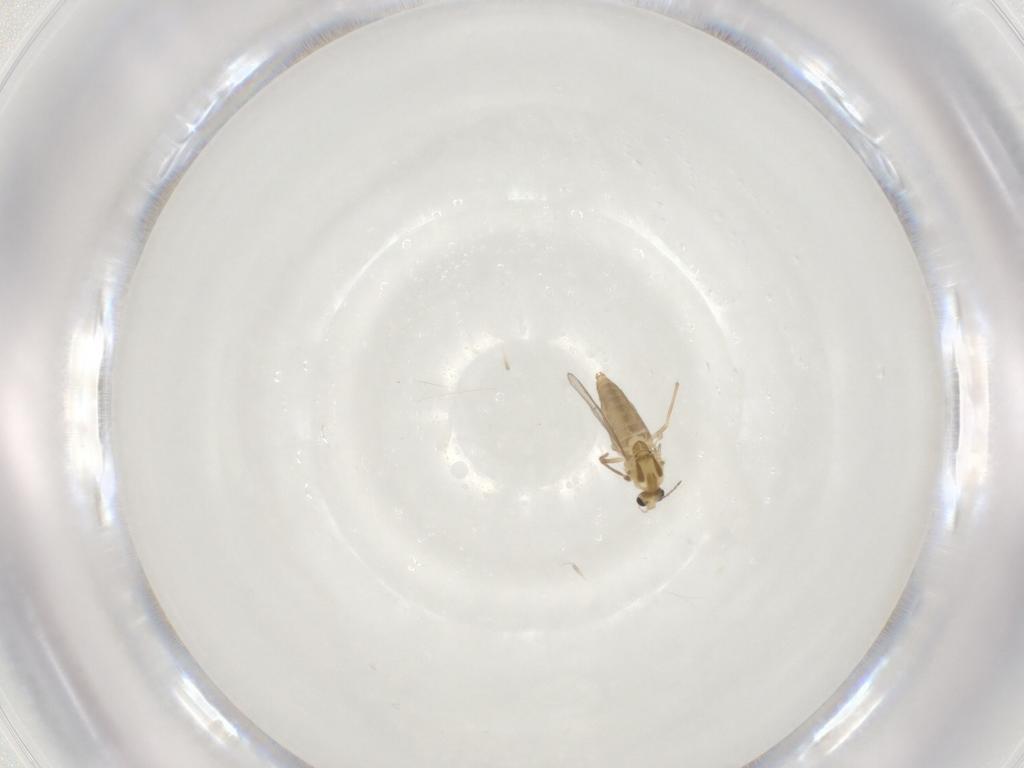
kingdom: Animalia
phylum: Arthropoda
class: Insecta
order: Diptera
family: Chironomidae
